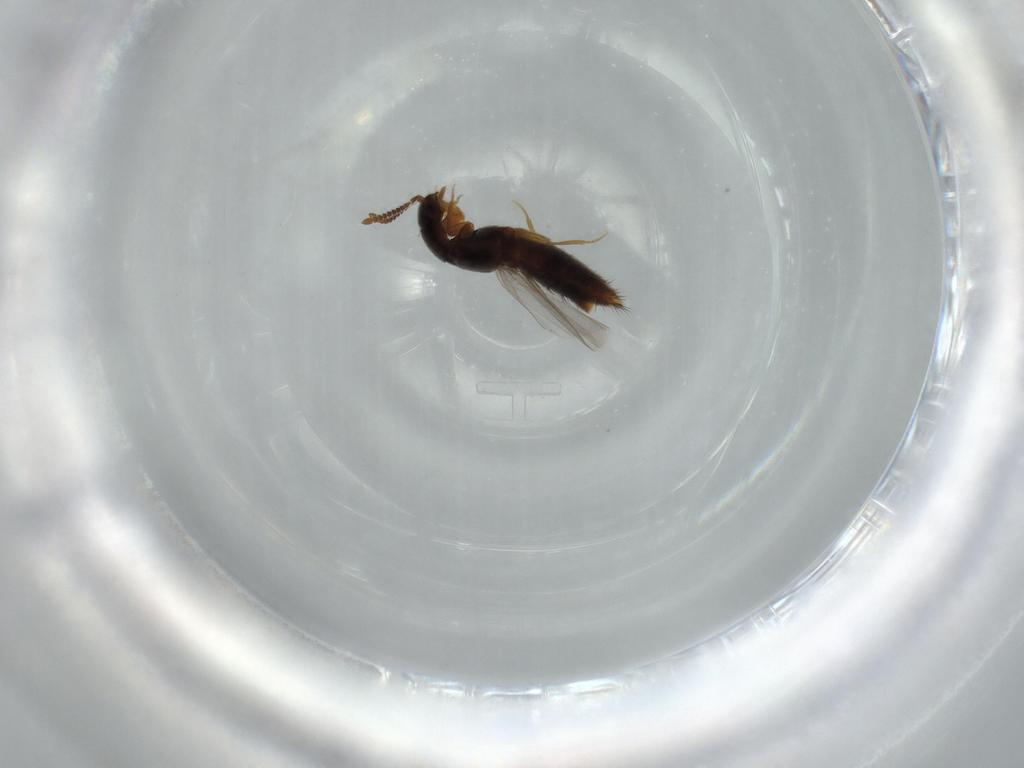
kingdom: Animalia
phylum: Arthropoda
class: Insecta
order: Coleoptera
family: Staphylinidae
